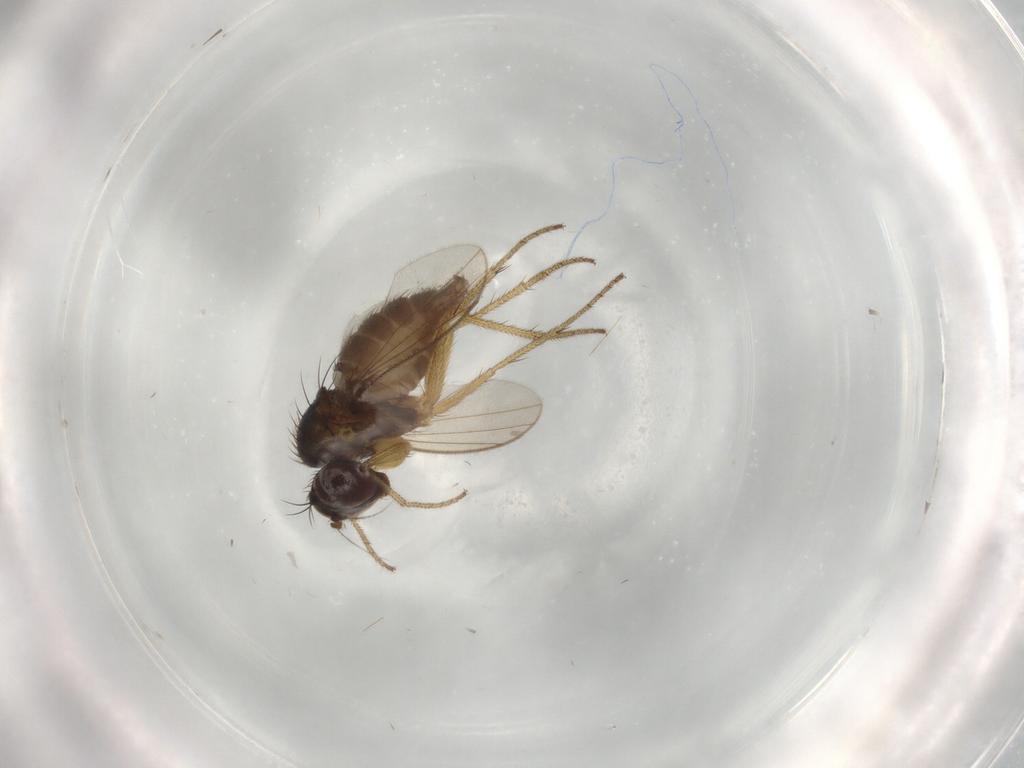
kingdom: Animalia
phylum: Arthropoda
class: Insecta
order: Diptera
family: Dolichopodidae
